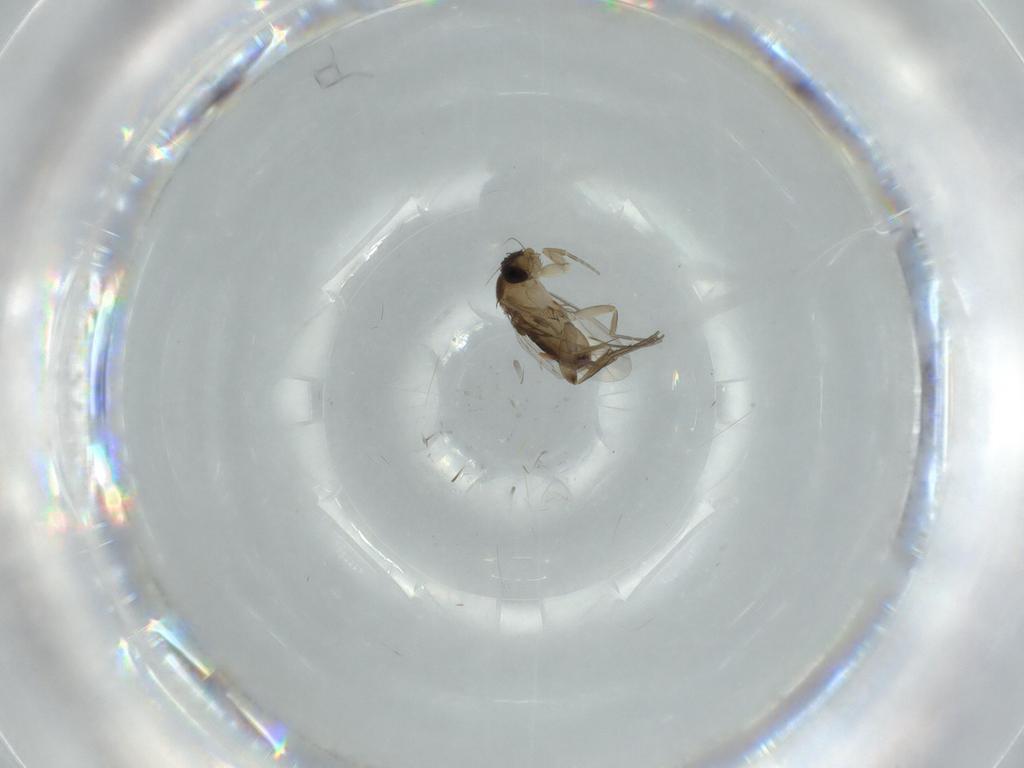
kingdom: Animalia
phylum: Arthropoda
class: Insecta
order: Diptera
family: Phoridae
